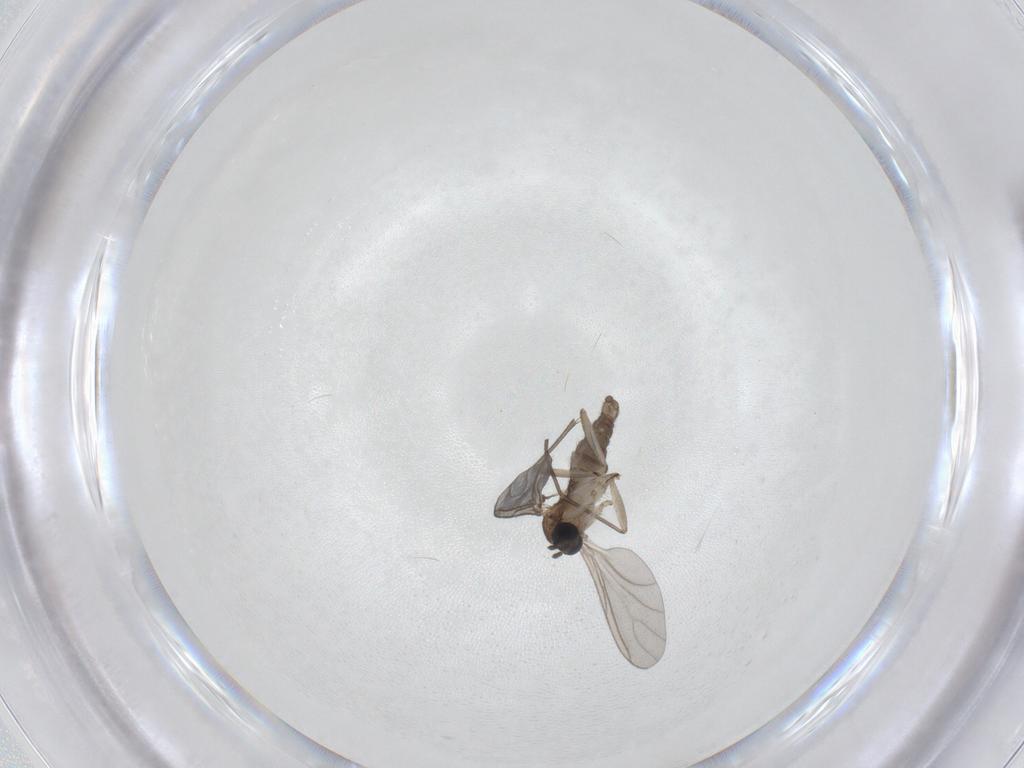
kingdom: Animalia
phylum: Arthropoda
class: Insecta
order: Diptera
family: Sciaridae
